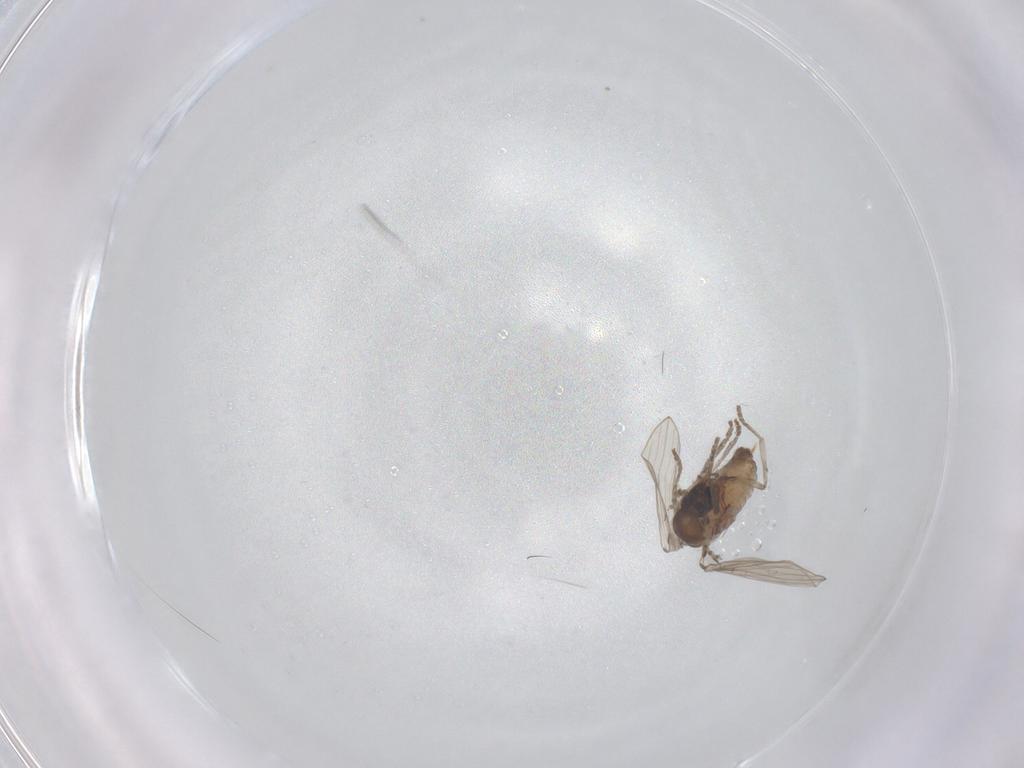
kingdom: Animalia
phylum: Arthropoda
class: Insecta
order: Diptera
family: Psychodidae
